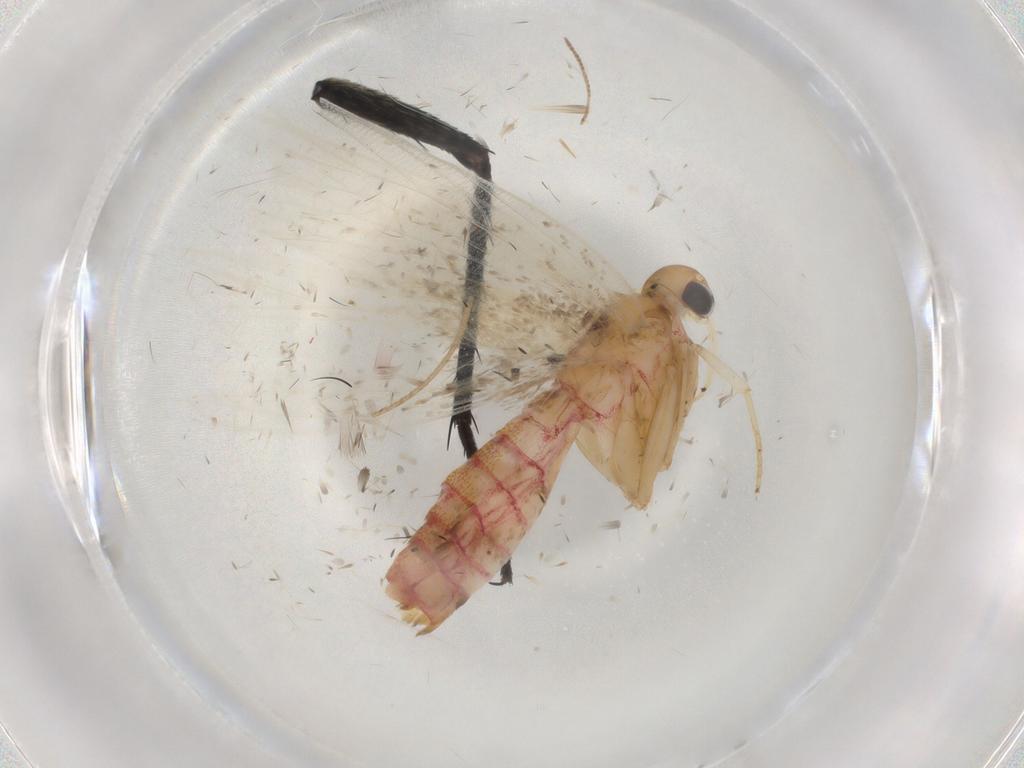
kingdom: Animalia
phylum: Arthropoda
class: Insecta
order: Lepidoptera
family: Lecithoceridae
